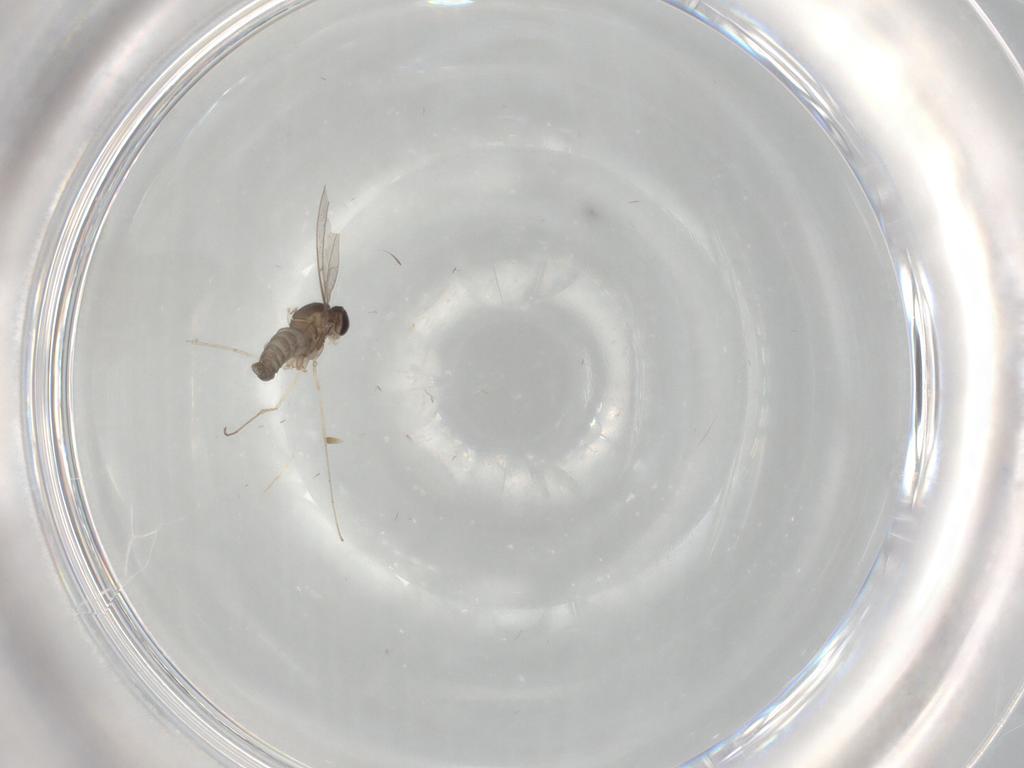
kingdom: Animalia
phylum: Arthropoda
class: Insecta
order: Diptera
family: Cecidomyiidae
